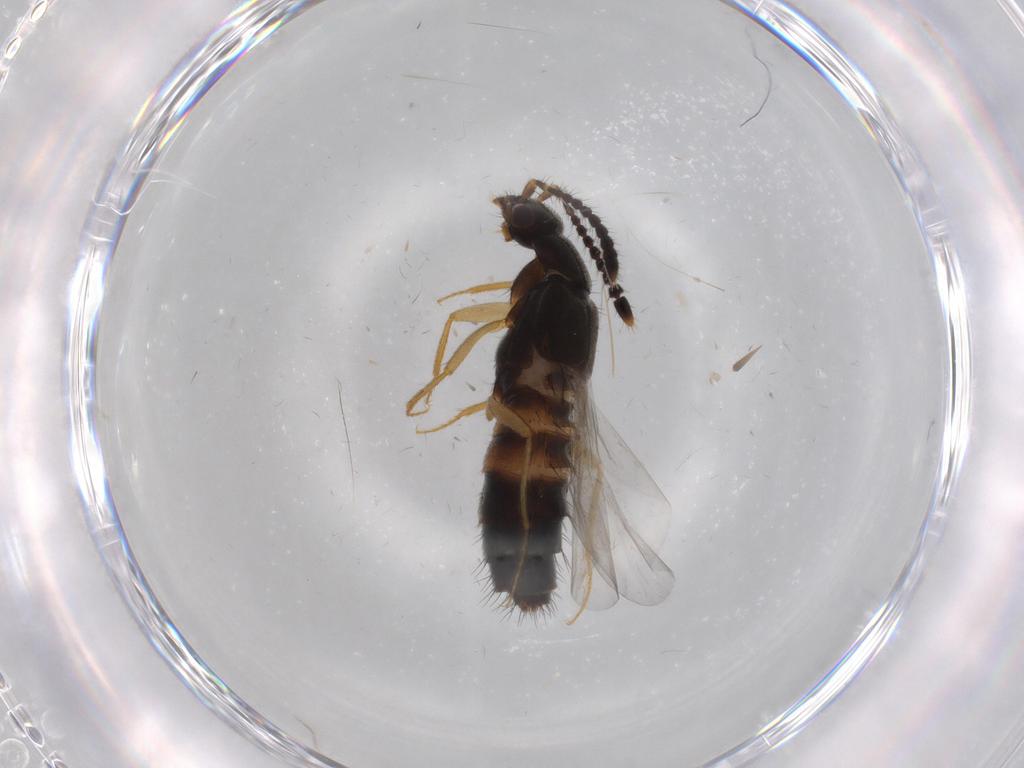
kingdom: Animalia
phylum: Arthropoda
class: Insecta
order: Coleoptera
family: Staphylinidae
